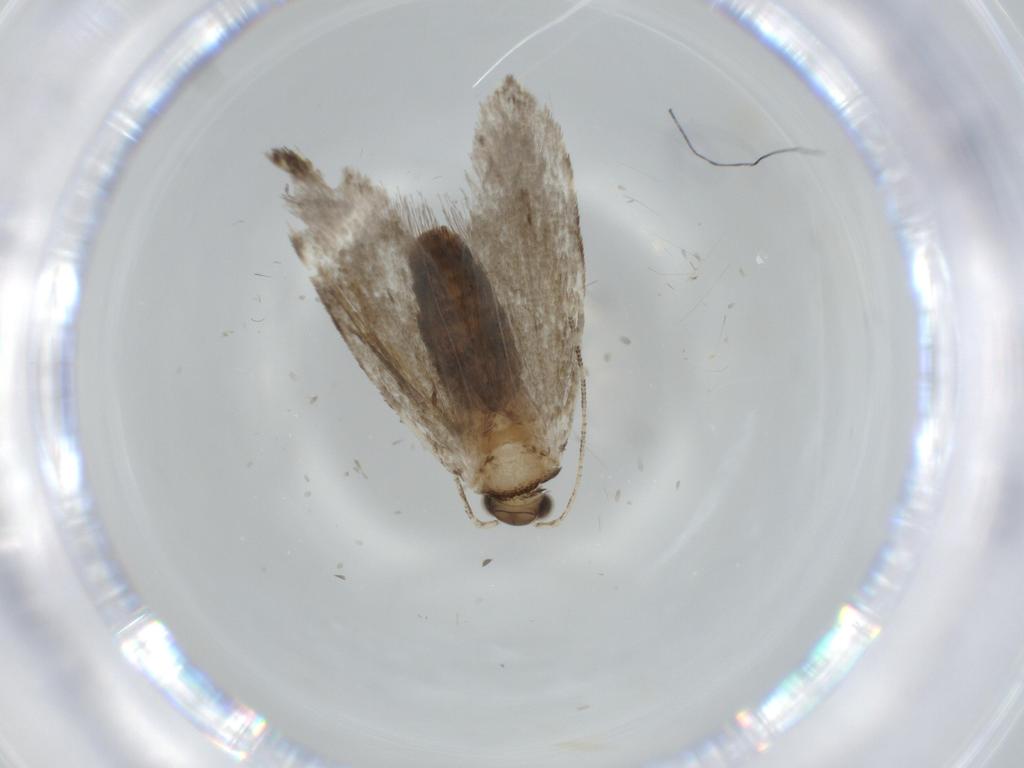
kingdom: Animalia
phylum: Arthropoda
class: Insecta
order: Lepidoptera
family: Tineidae
